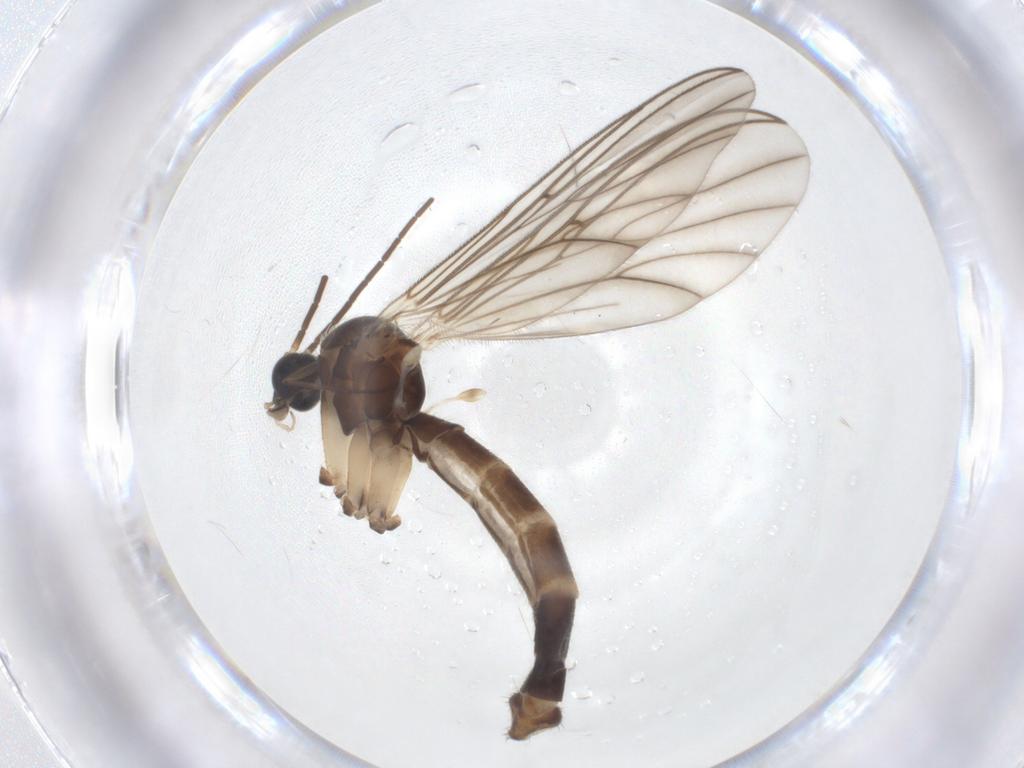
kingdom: Animalia
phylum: Arthropoda
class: Insecta
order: Diptera
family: Mycetophilidae
